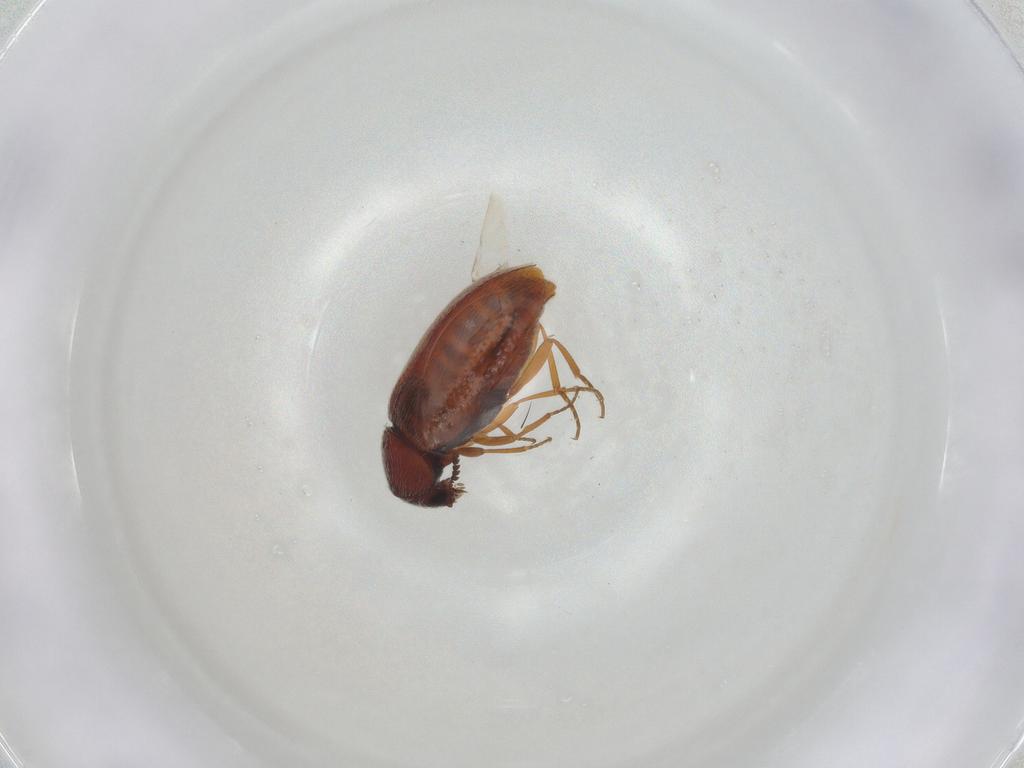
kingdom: Animalia
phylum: Arthropoda
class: Insecta
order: Coleoptera
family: Rhadalidae
